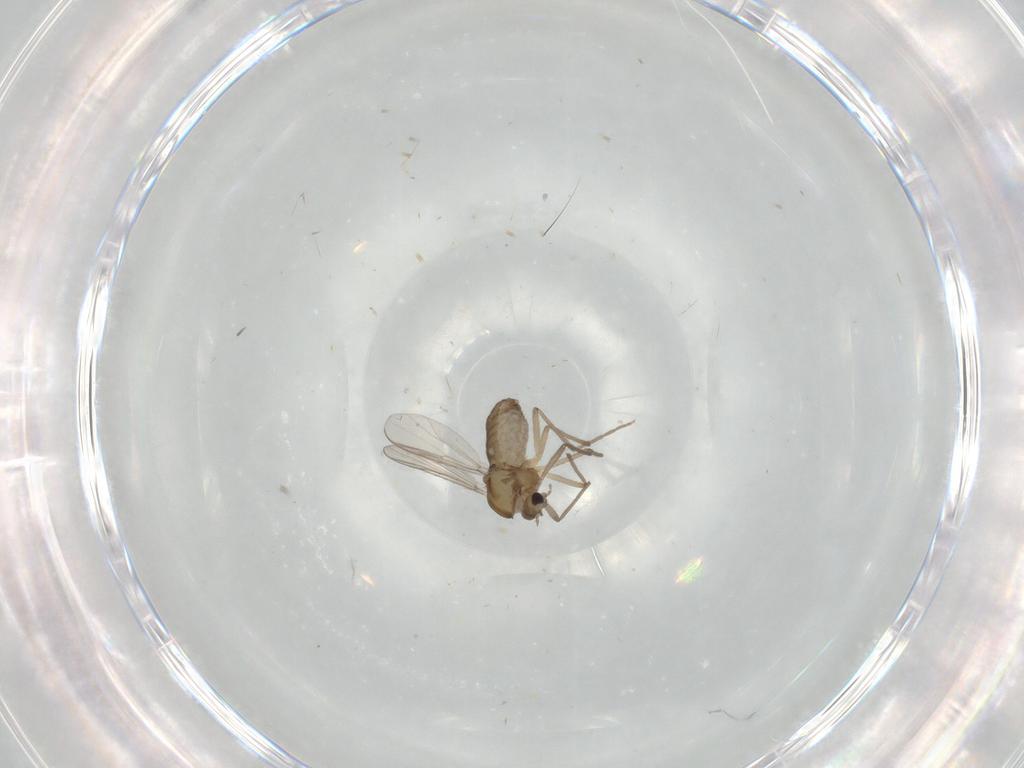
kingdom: Animalia
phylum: Arthropoda
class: Insecta
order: Diptera
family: Chironomidae
